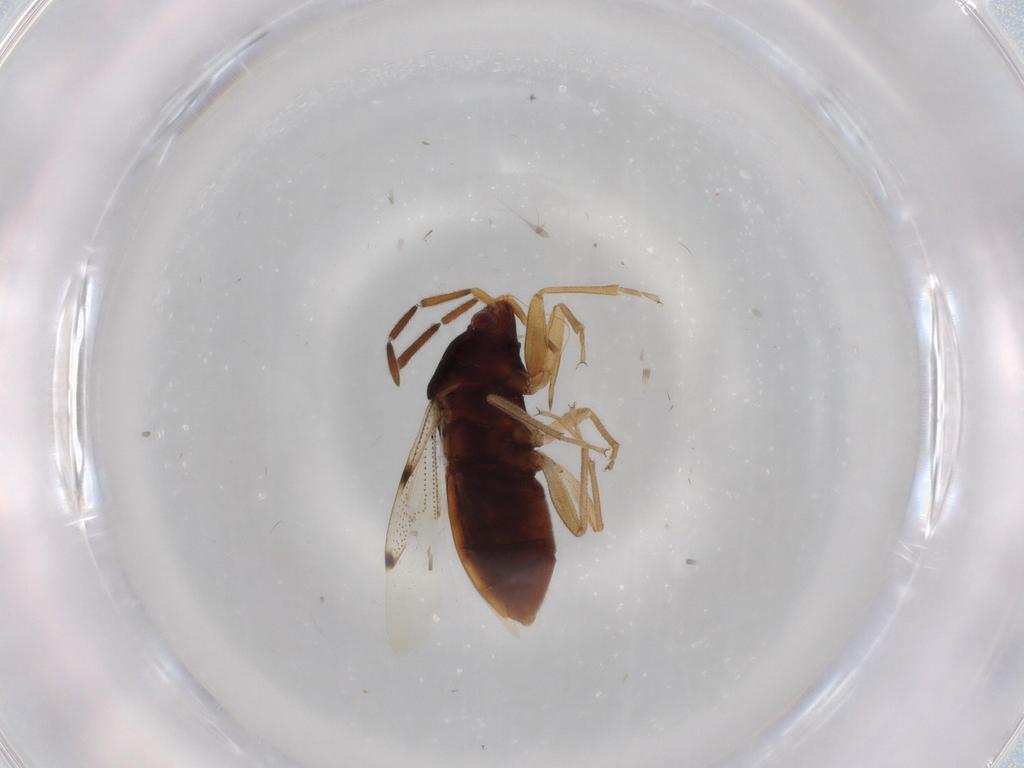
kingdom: Animalia
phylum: Arthropoda
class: Insecta
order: Hemiptera
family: Rhyparochromidae
